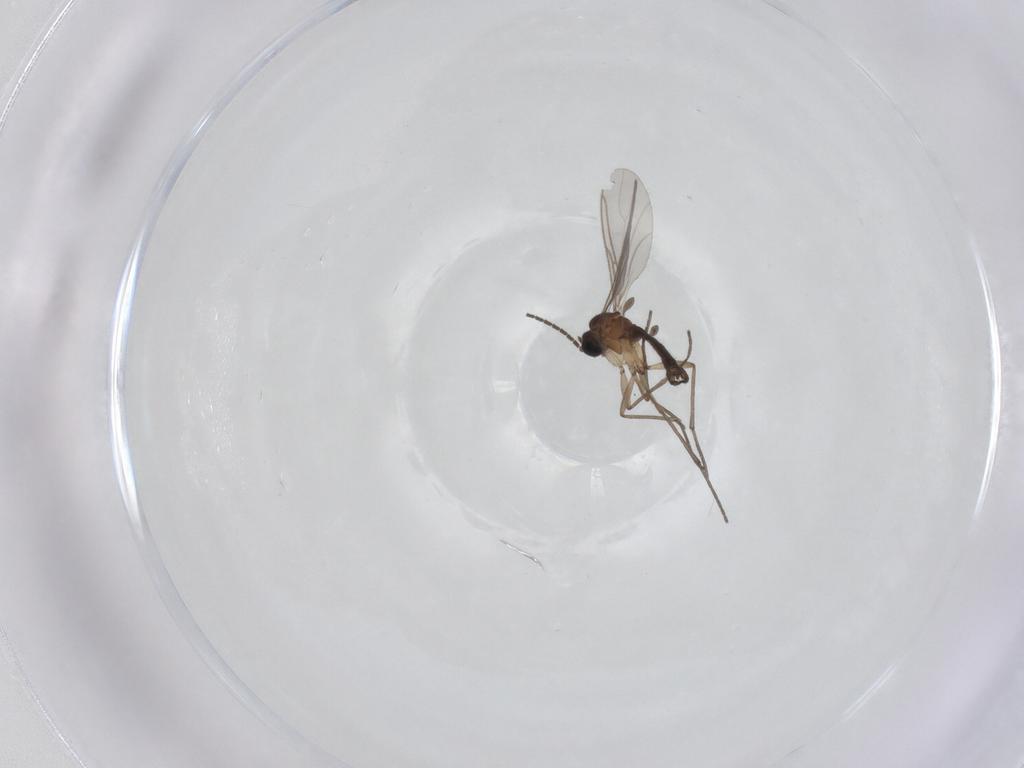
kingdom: Animalia
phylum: Arthropoda
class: Insecta
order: Diptera
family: Sciaridae
